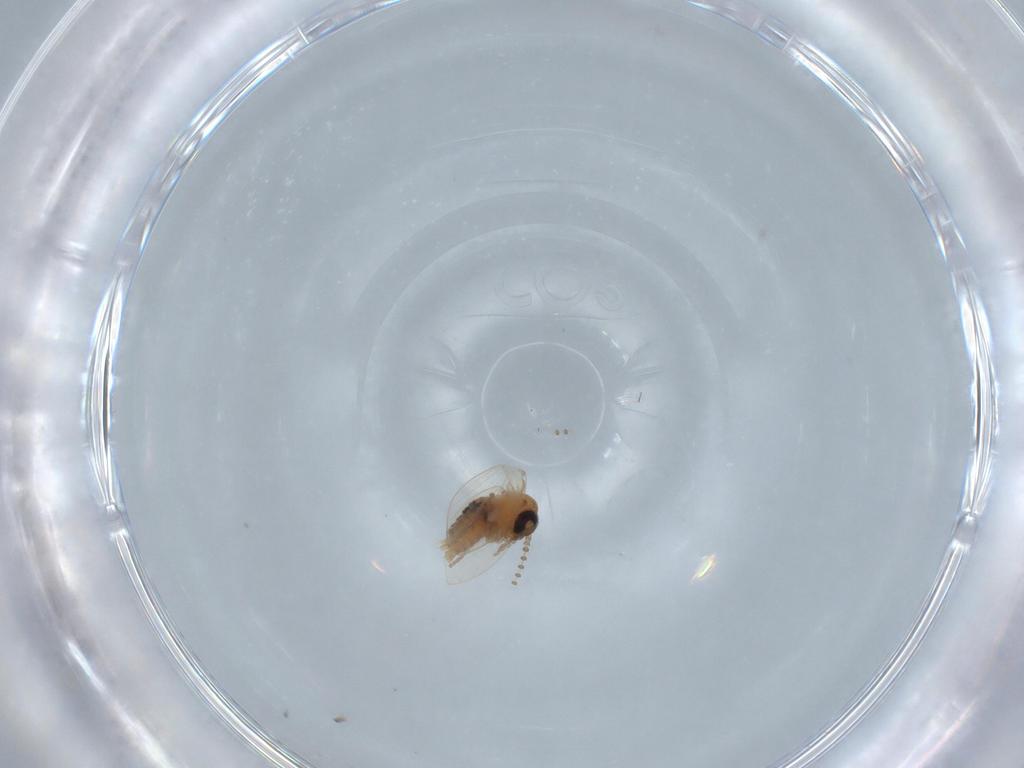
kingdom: Animalia
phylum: Arthropoda
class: Insecta
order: Diptera
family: Psychodidae
